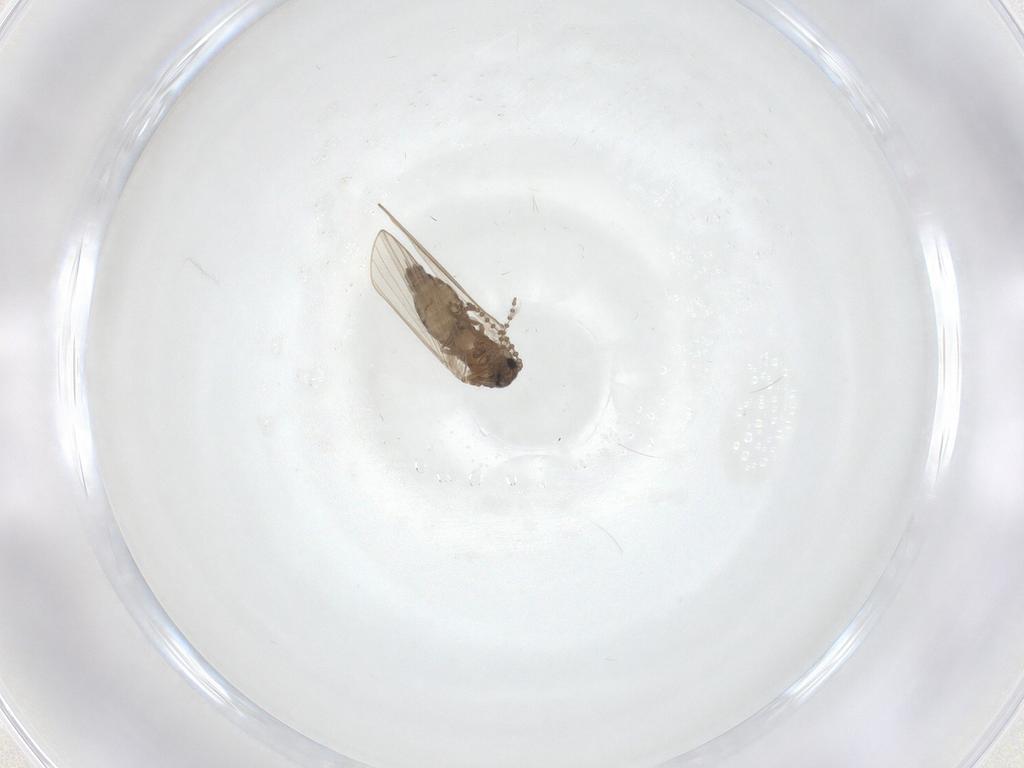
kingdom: Animalia
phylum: Arthropoda
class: Insecta
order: Diptera
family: Psychodidae
